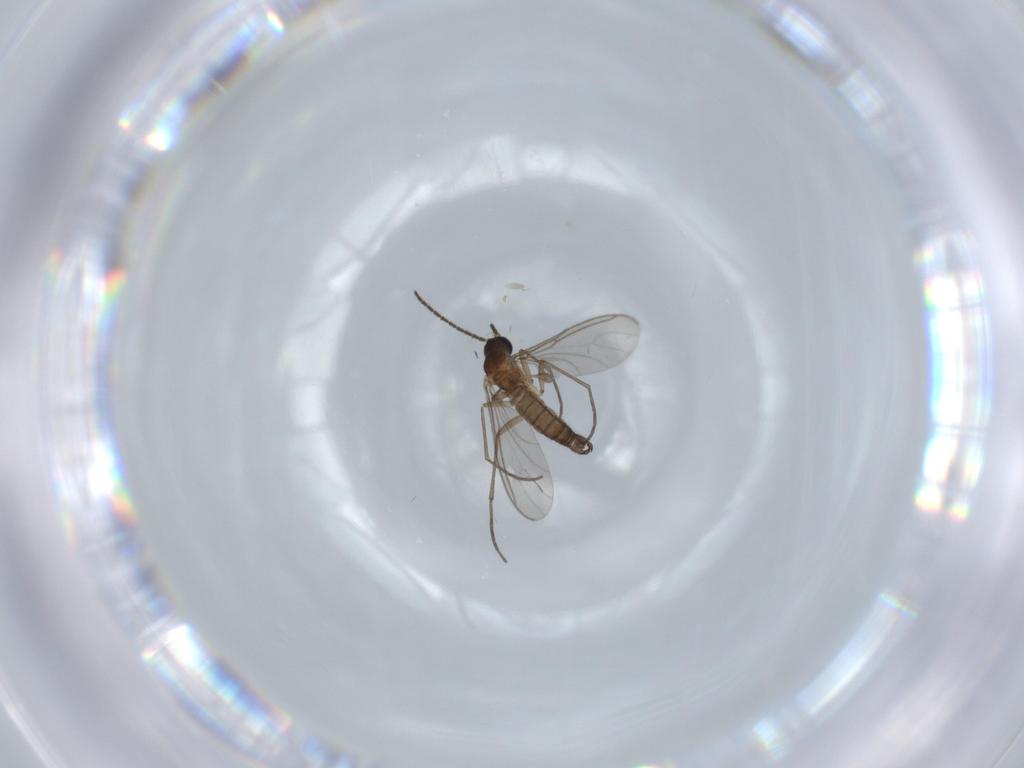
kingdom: Animalia
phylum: Arthropoda
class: Insecta
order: Diptera
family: Sciaridae
